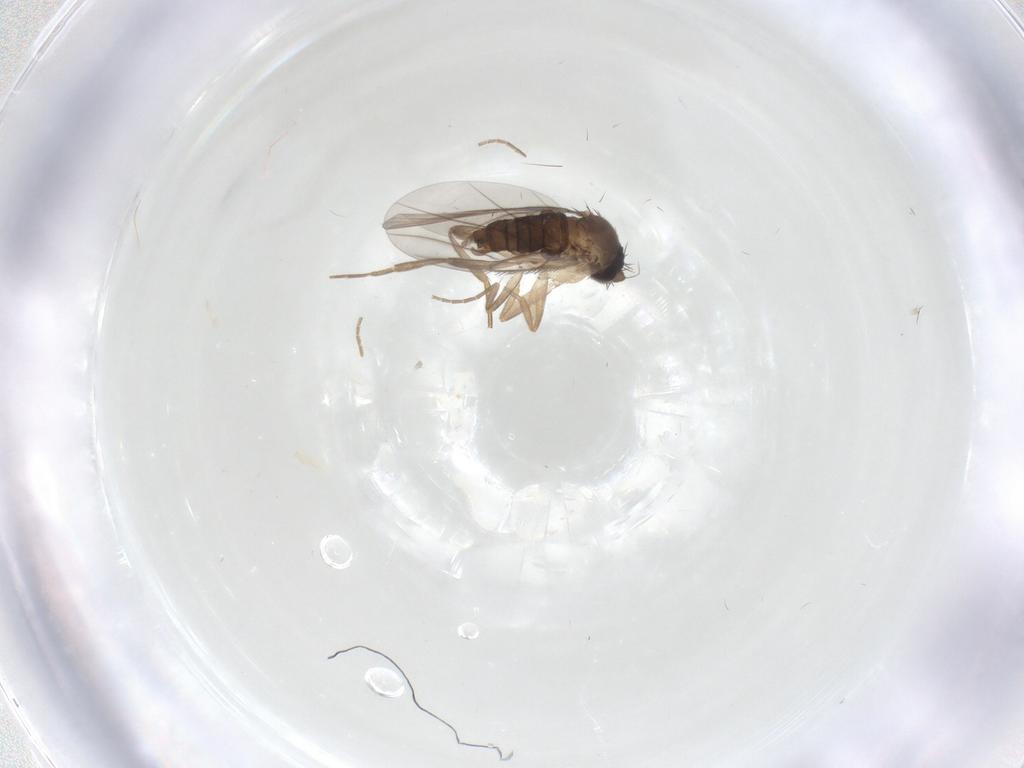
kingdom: Animalia
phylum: Arthropoda
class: Insecta
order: Diptera
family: Phoridae
